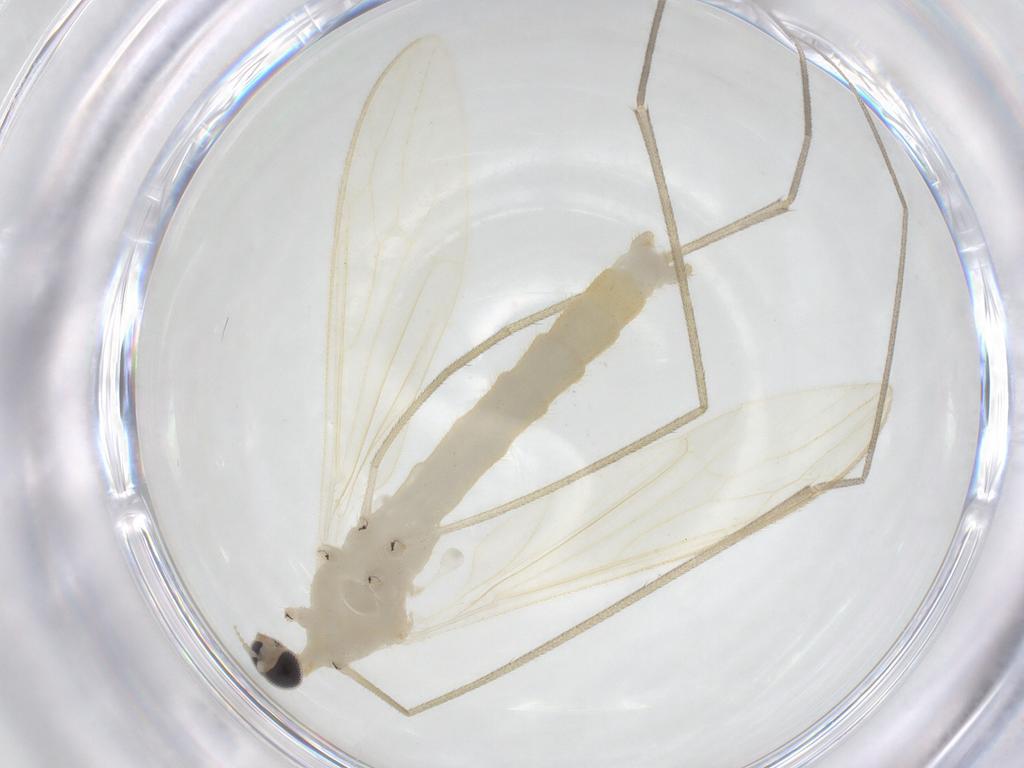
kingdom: Animalia
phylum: Arthropoda
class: Insecta
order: Diptera
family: Limoniidae
